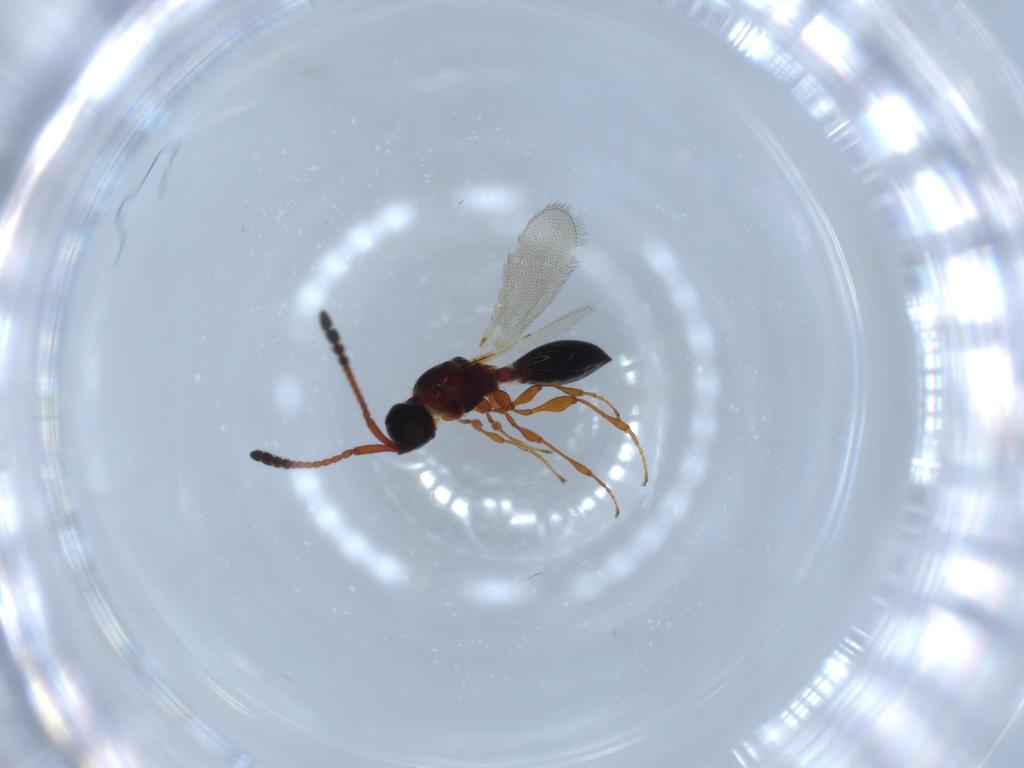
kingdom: Animalia
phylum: Arthropoda
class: Insecta
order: Hymenoptera
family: Diapriidae
